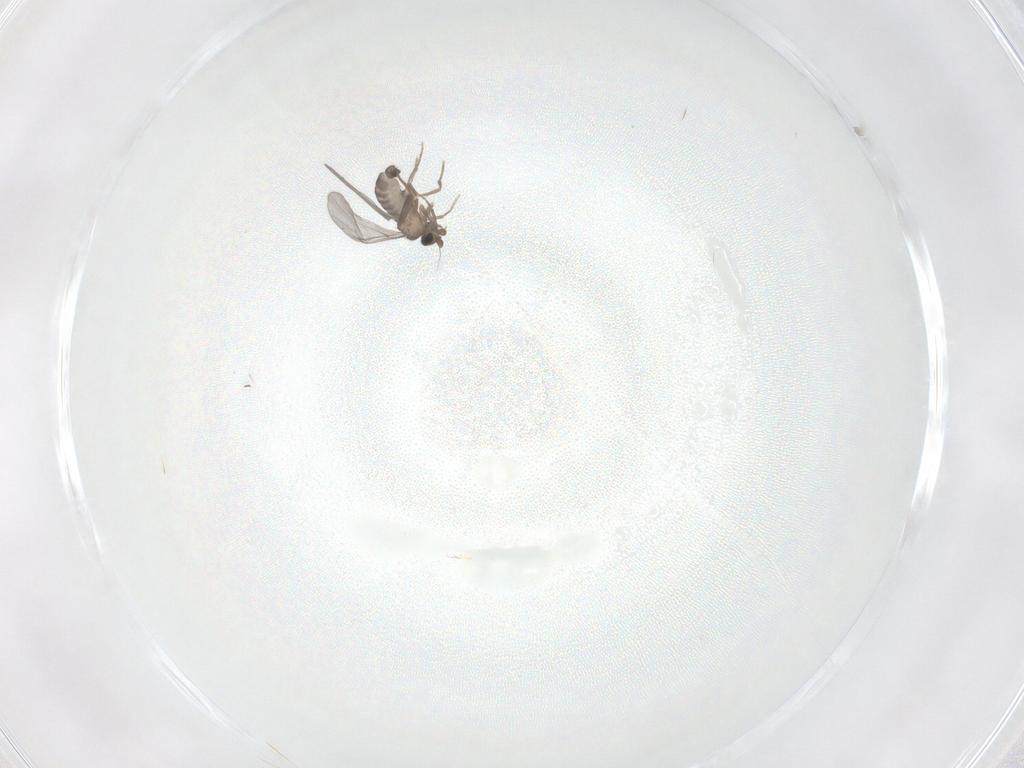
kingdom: Animalia
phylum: Arthropoda
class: Insecta
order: Diptera
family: Phoridae
